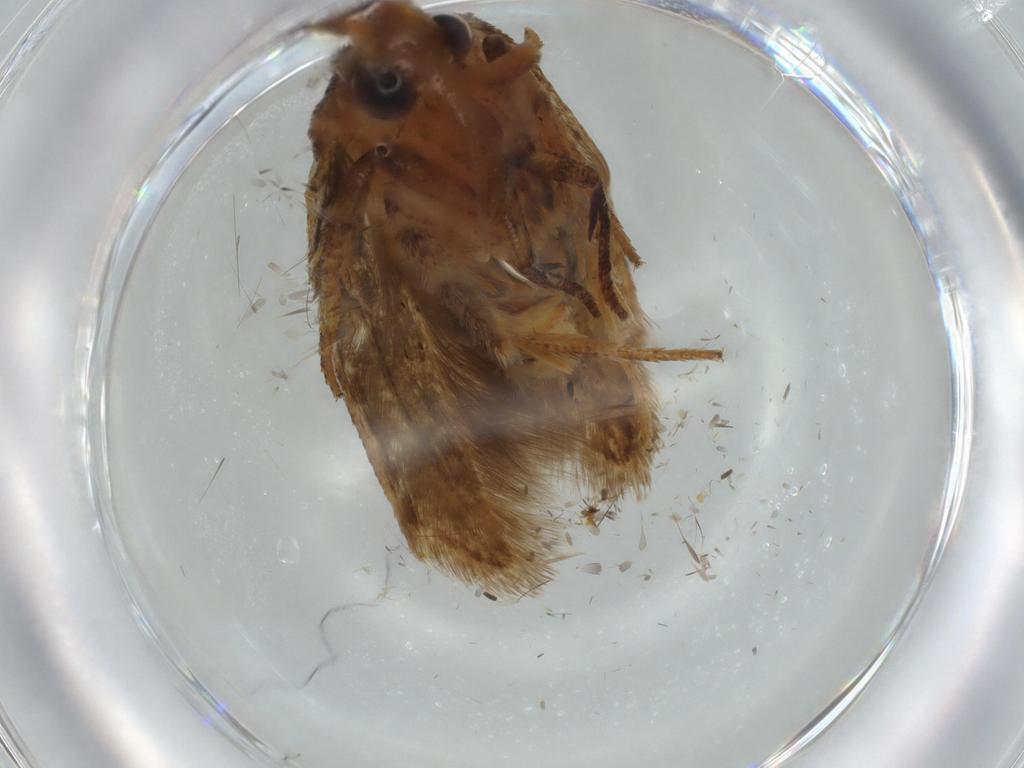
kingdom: Animalia
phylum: Arthropoda
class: Insecta
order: Lepidoptera
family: Coleophoridae
